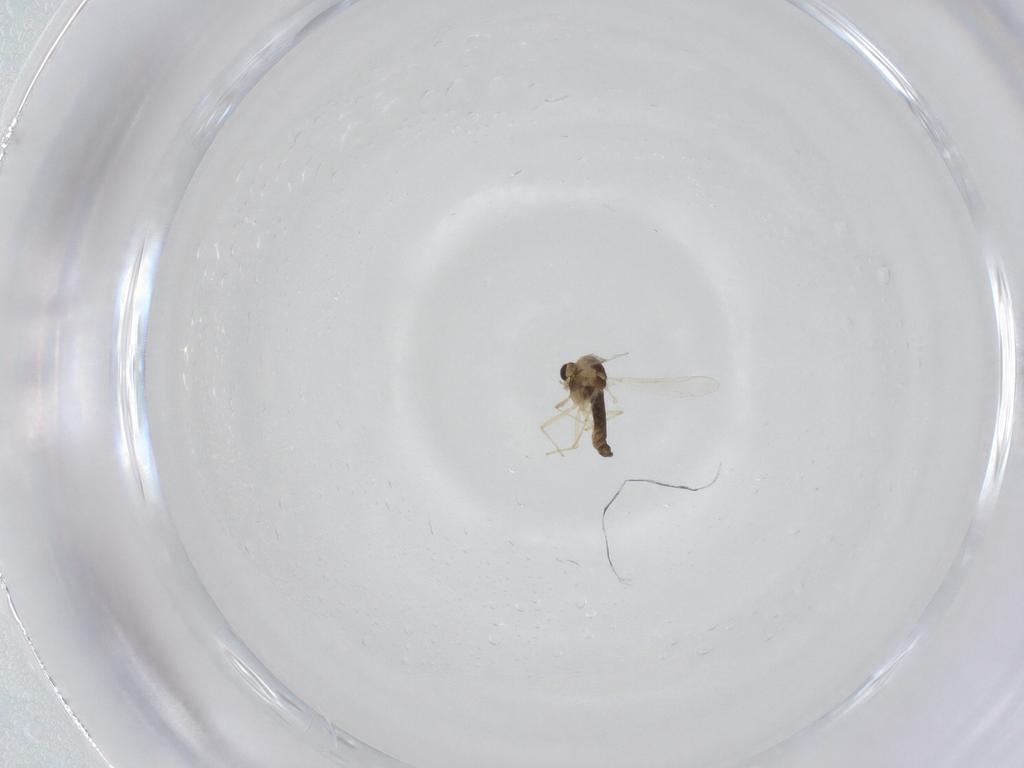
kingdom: Animalia
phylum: Arthropoda
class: Insecta
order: Diptera
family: Chironomidae
